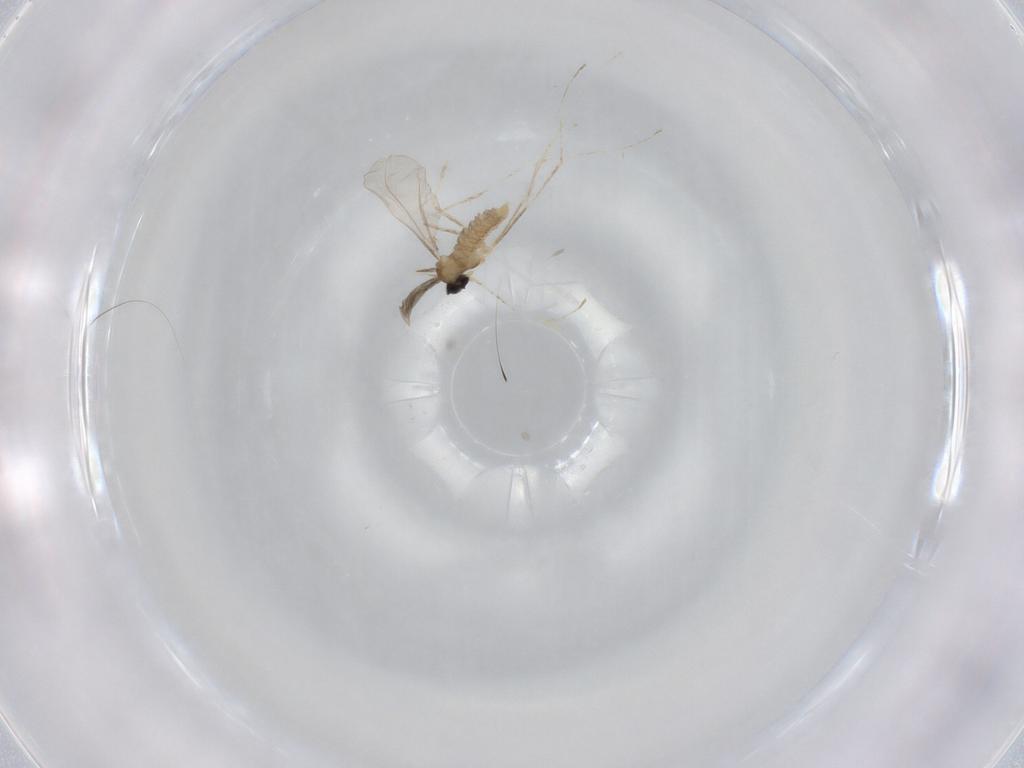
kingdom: Animalia
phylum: Arthropoda
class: Insecta
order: Diptera
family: Cecidomyiidae
